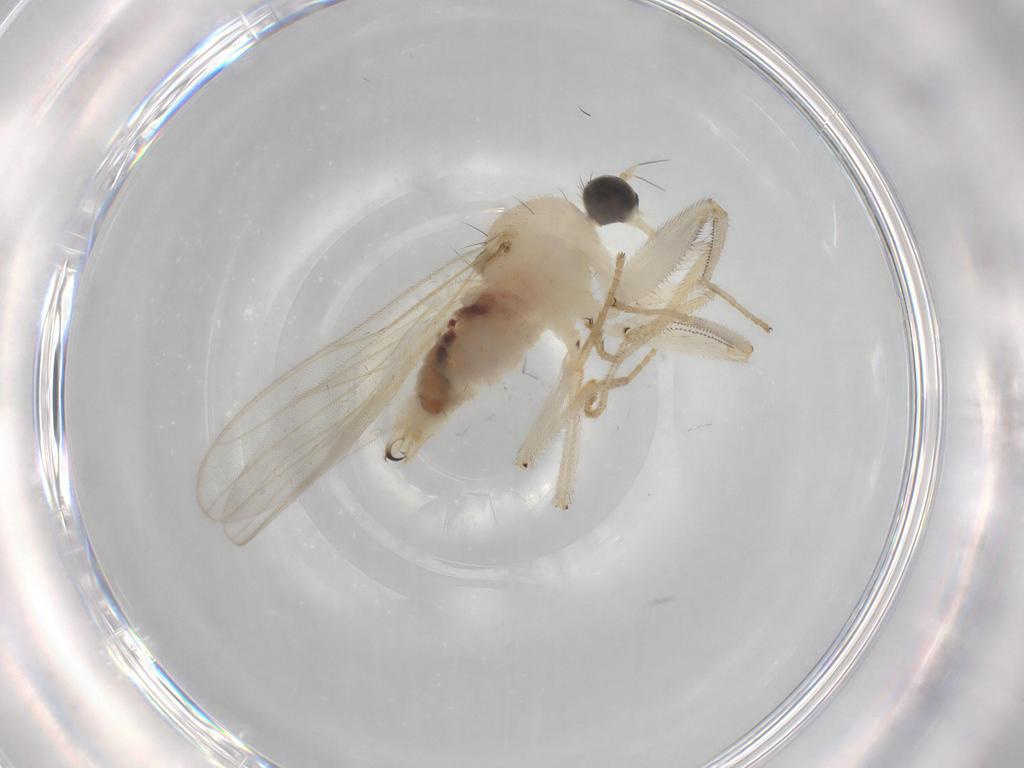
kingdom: Animalia
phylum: Arthropoda
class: Insecta
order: Diptera
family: Hybotidae
